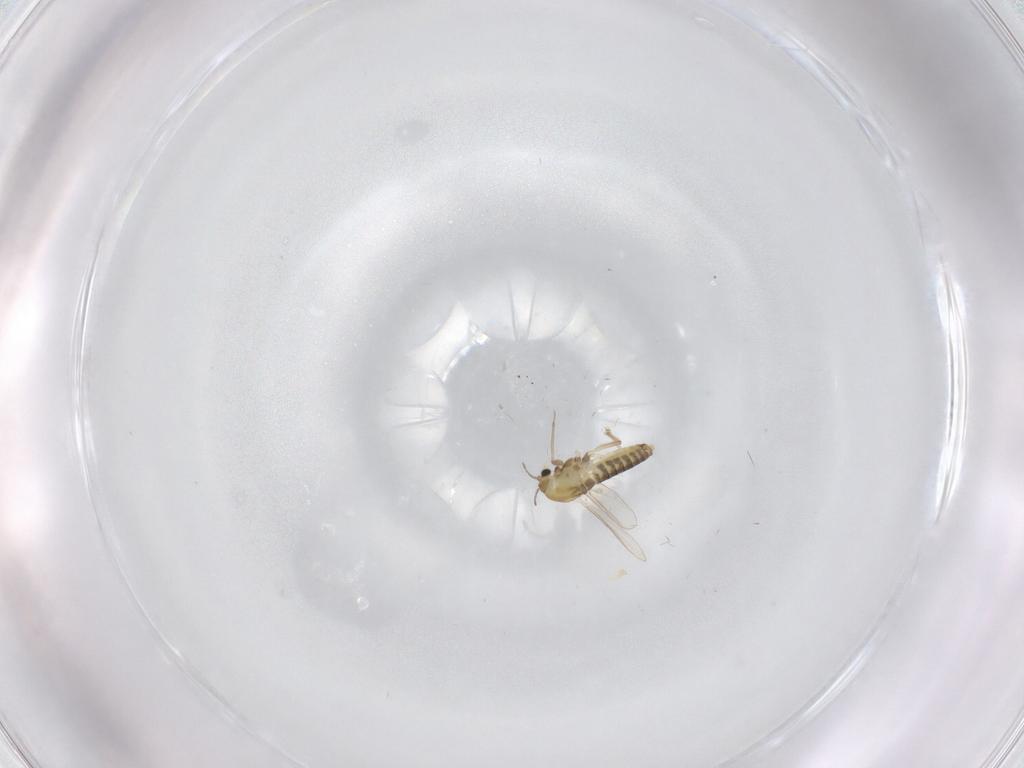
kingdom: Animalia
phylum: Arthropoda
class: Insecta
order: Diptera
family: Chironomidae
